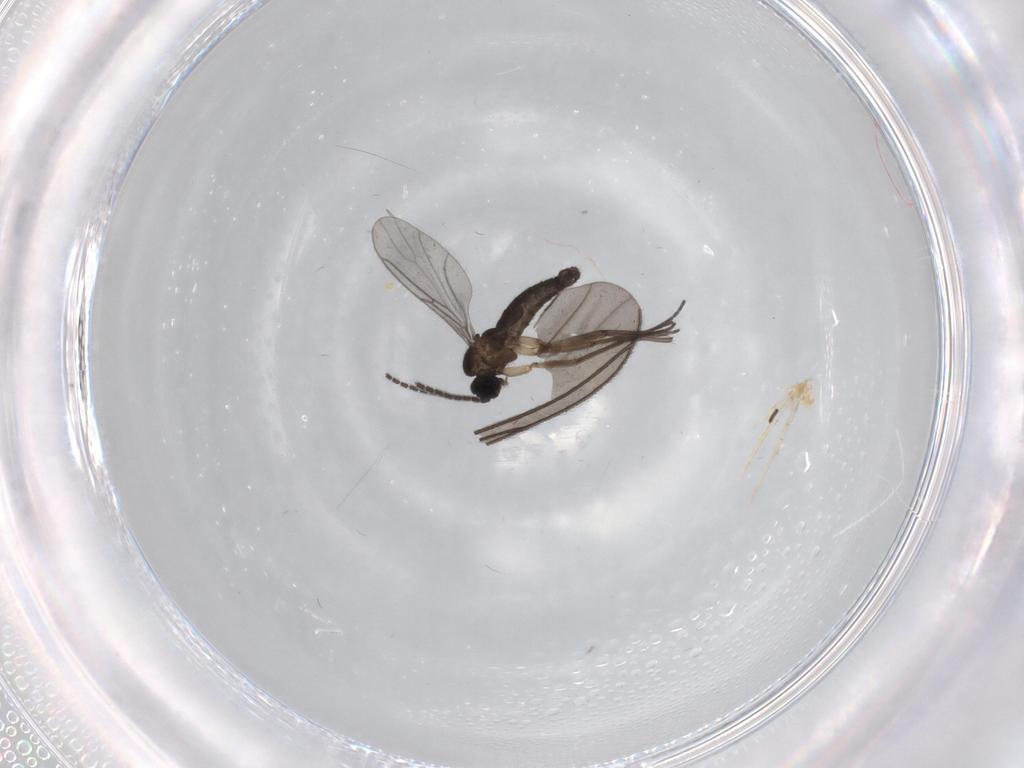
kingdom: Animalia
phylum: Arthropoda
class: Insecta
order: Diptera
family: Sciaridae
